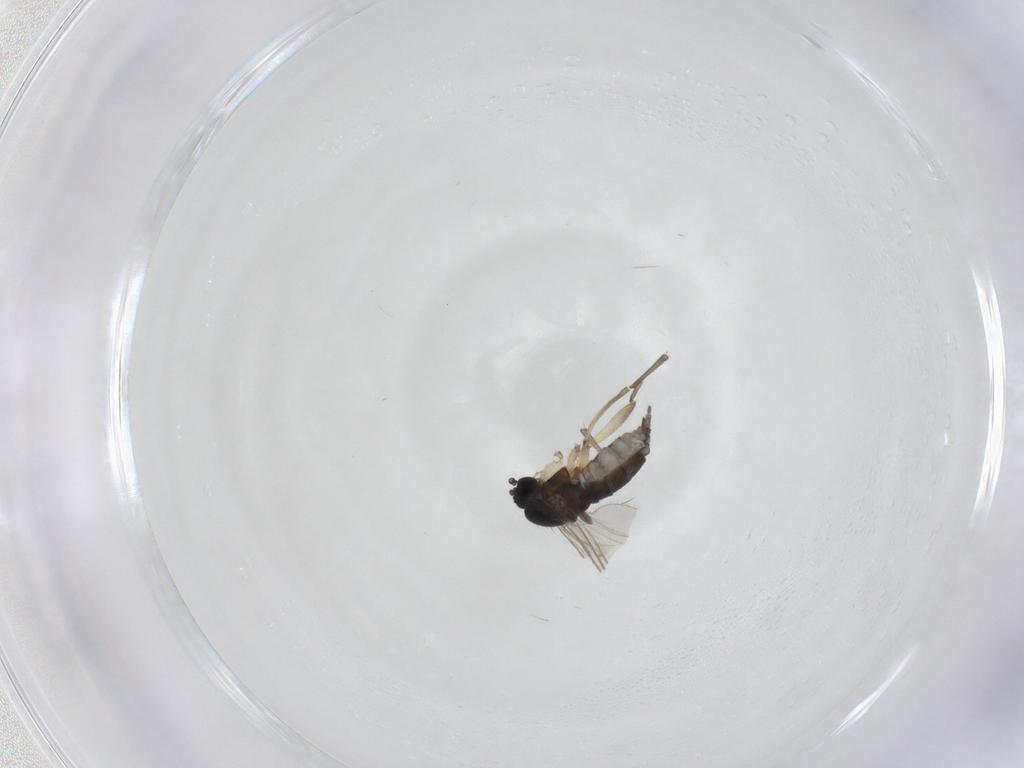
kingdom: Animalia
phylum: Arthropoda
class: Insecta
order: Diptera
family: Sciaridae
